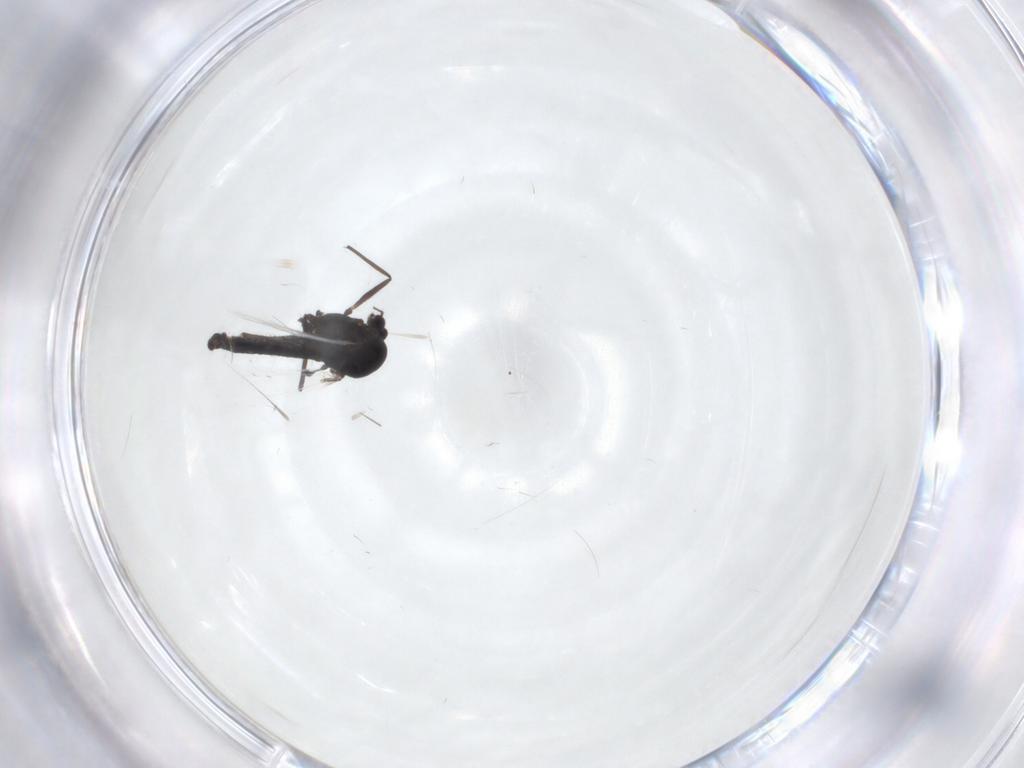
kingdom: Animalia
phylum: Arthropoda
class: Insecta
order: Diptera
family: Chironomidae
